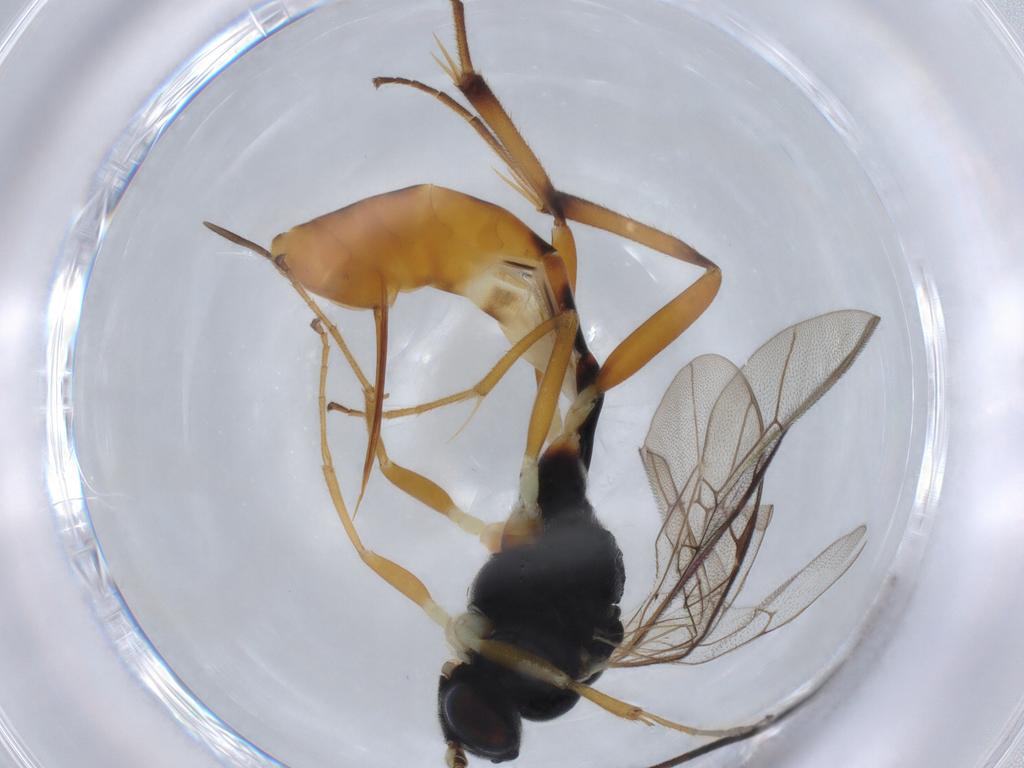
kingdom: Animalia
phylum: Arthropoda
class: Insecta
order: Hymenoptera
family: Ichneumonidae
